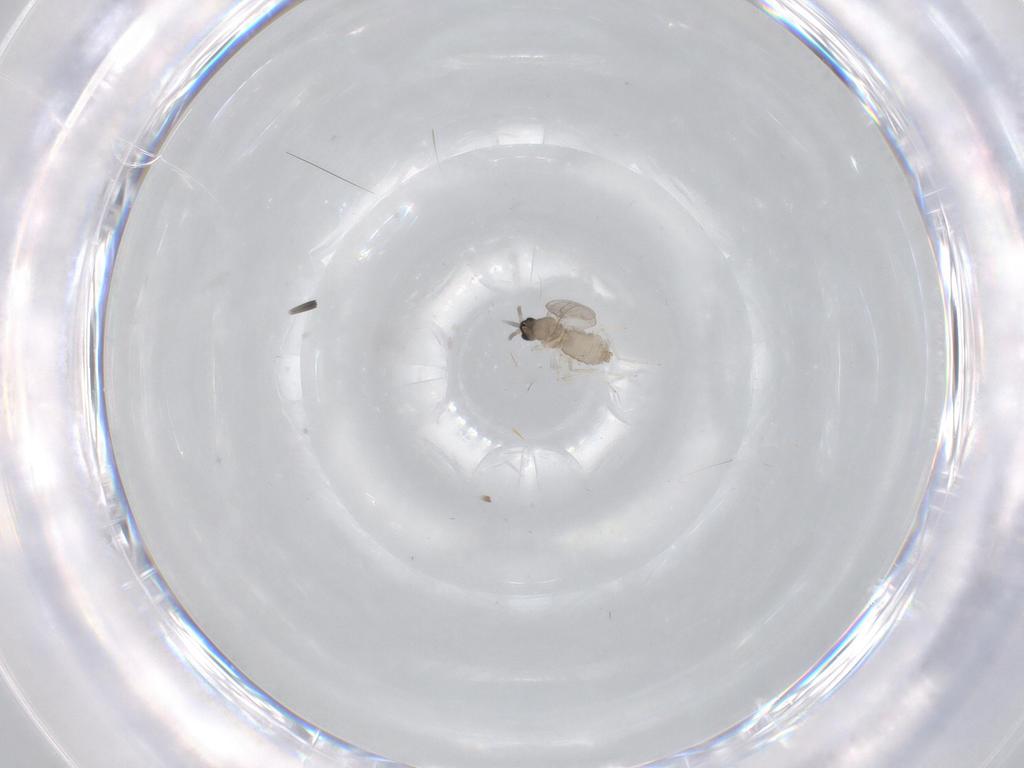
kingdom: Animalia
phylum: Arthropoda
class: Insecta
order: Diptera
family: Cecidomyiidae
